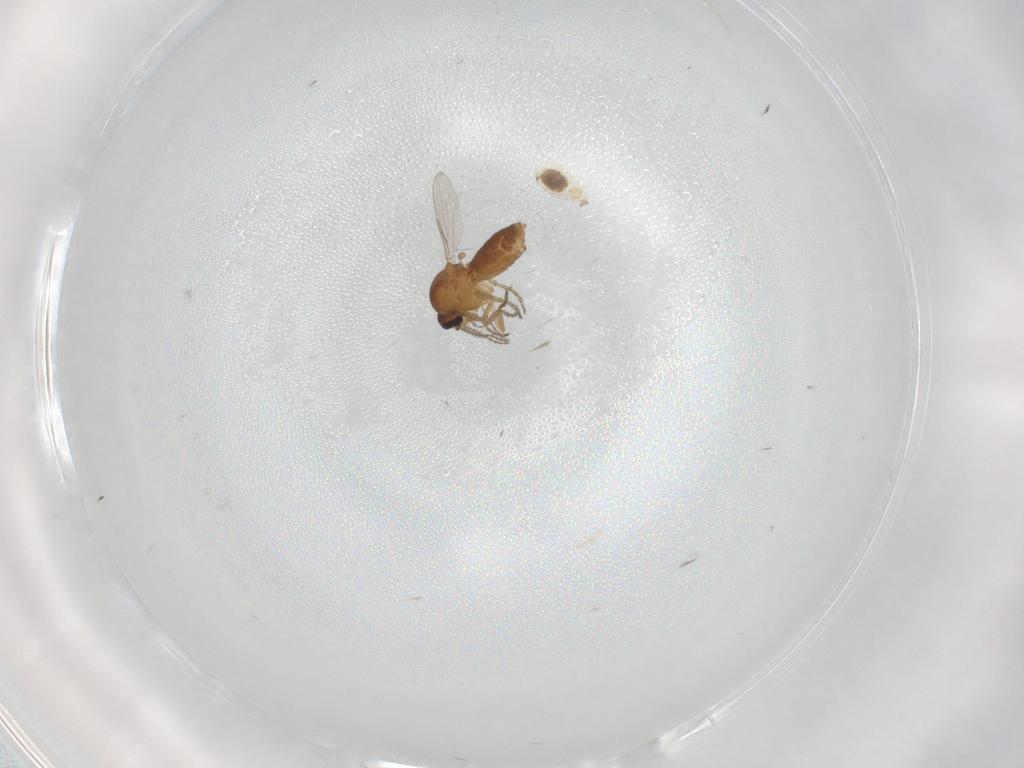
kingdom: Animalia
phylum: Arthropoda
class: Insecta
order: Diptera
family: Ceratopogonidae
